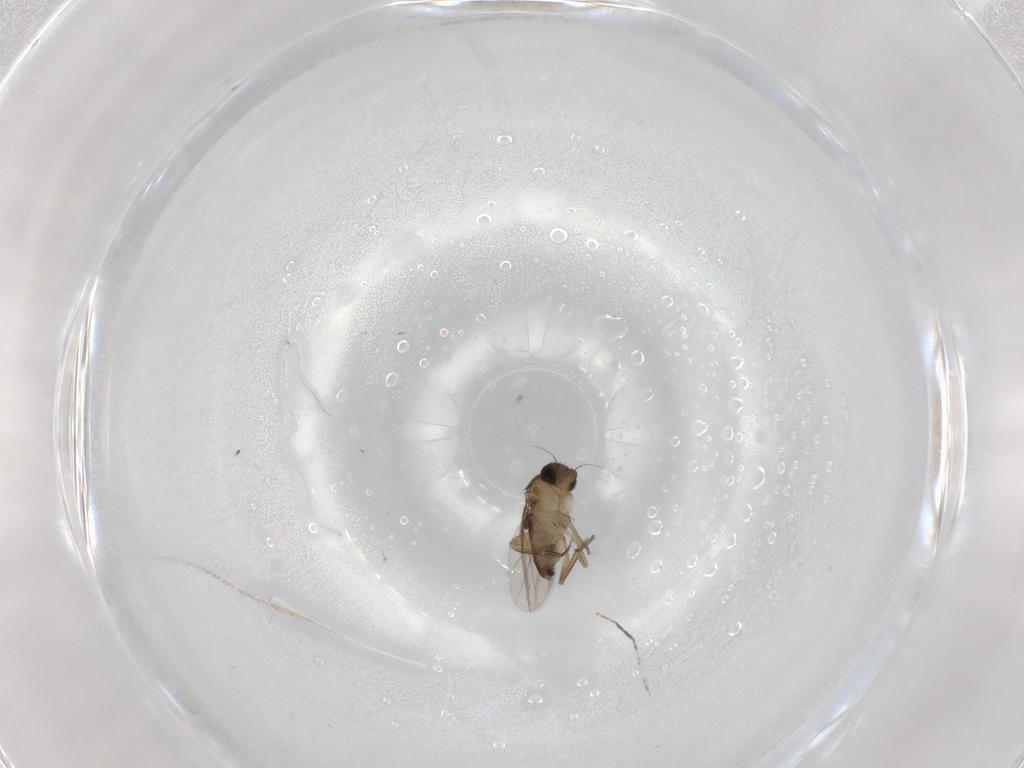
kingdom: Animalia
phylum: Arthropoda
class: Insecta
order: Diptera
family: Phoridae
